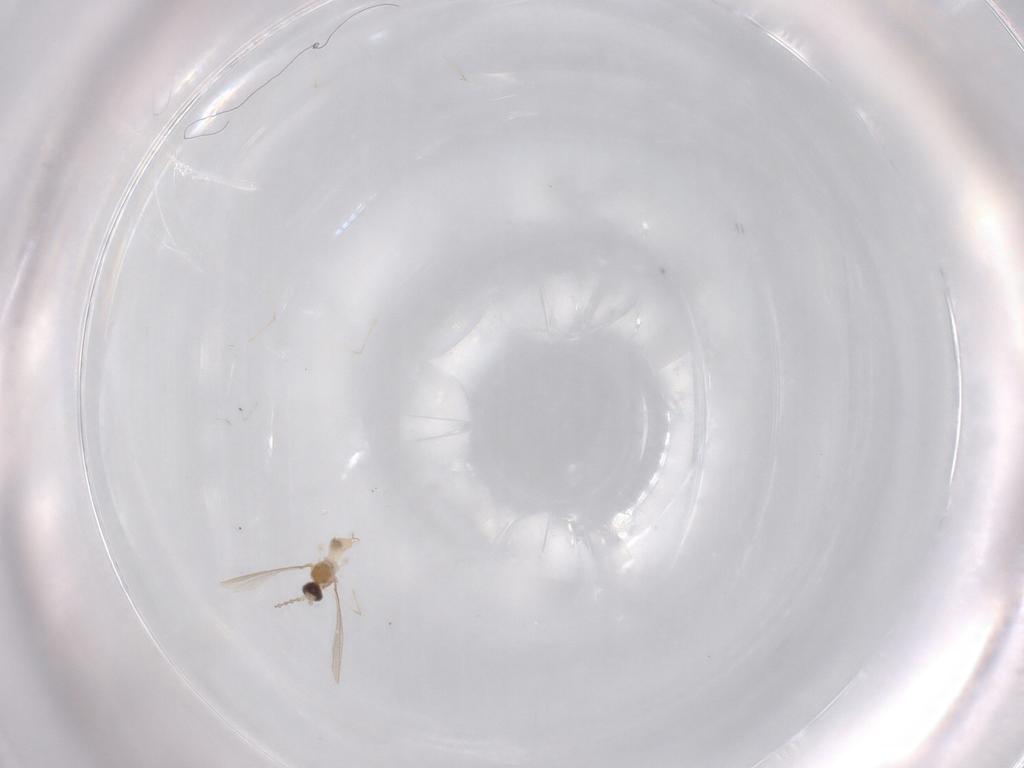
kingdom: Animalia
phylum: Arthropoda
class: Insecta
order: Diptera
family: Cecidomyiidae
